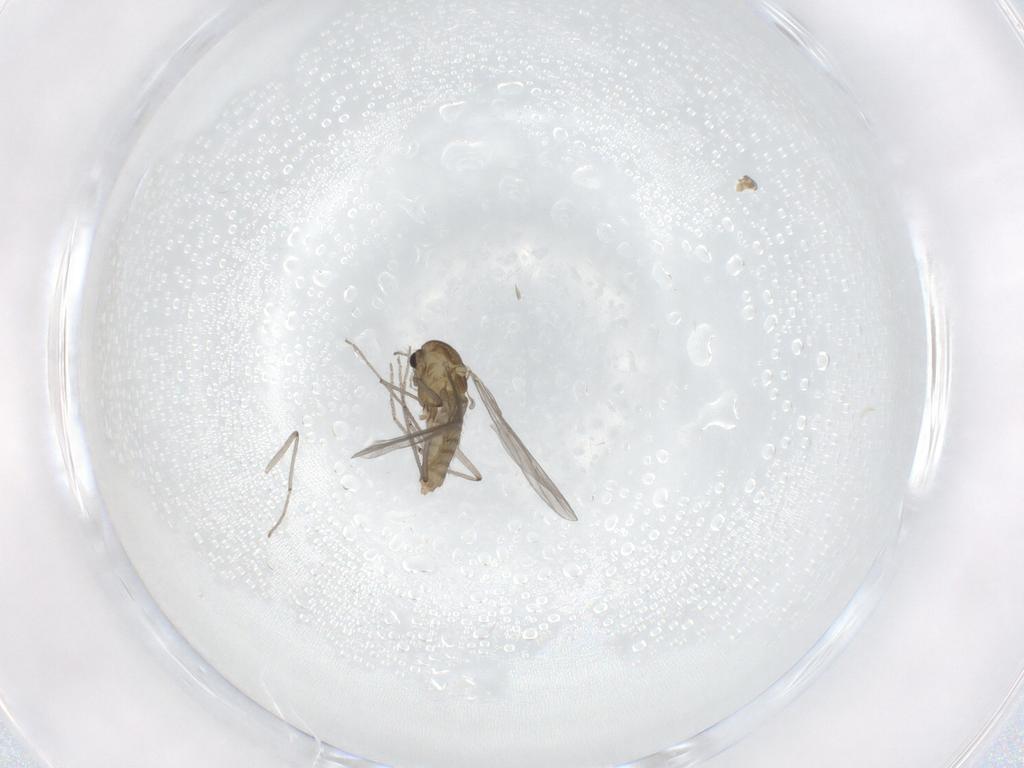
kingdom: Animalia
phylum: Arthropoda
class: Insecta
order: Diptera
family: Chironomidae
